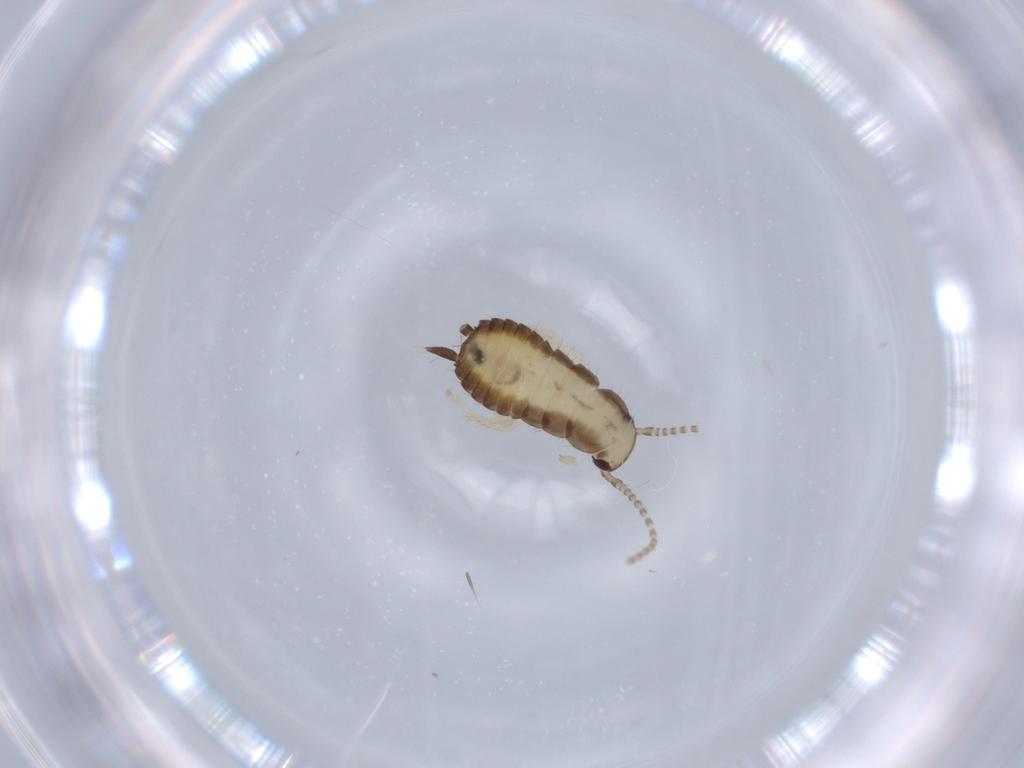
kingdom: Animalia
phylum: Arthropoda
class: Insecta
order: Blattodea
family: Ectobiidae
